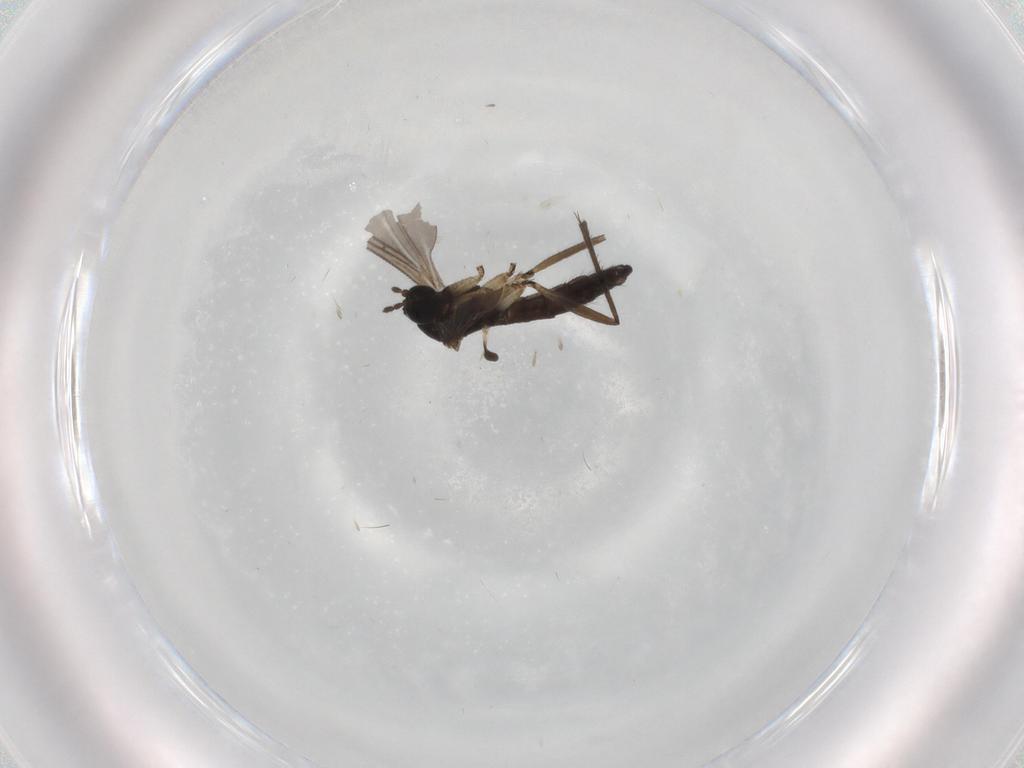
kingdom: Animalia
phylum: Arthropoda
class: Insecta
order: Diptera
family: Sciaridae
